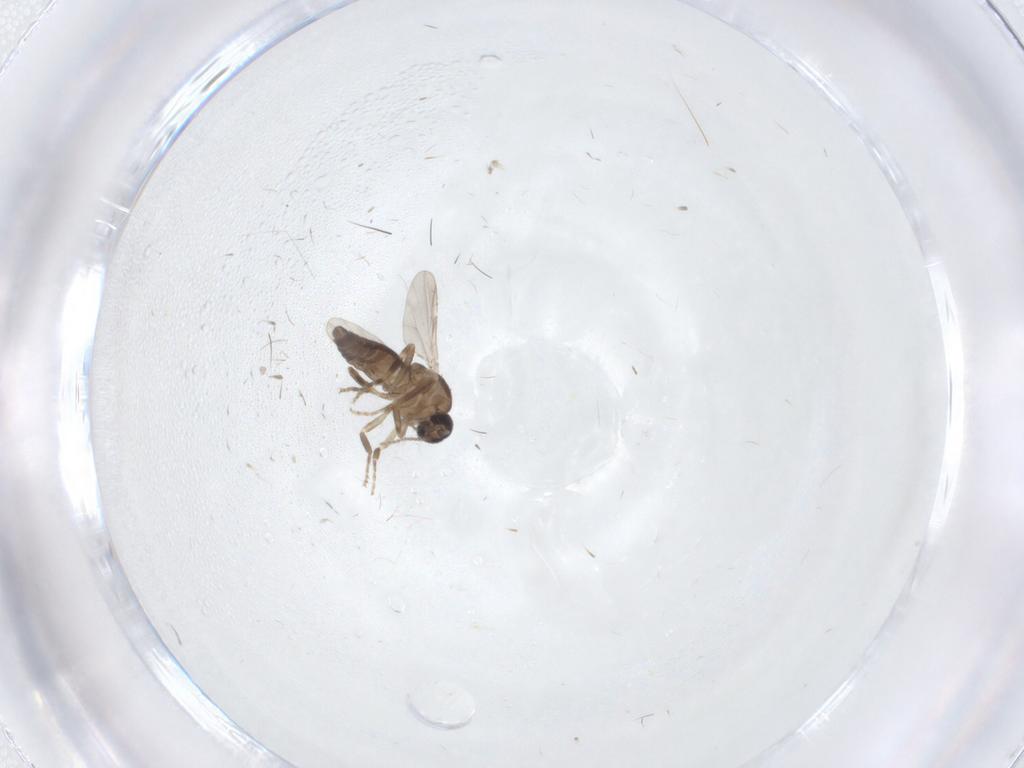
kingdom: Animalia
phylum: Arthropoda
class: Insecta
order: Diptera
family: Ceratopogonidae
